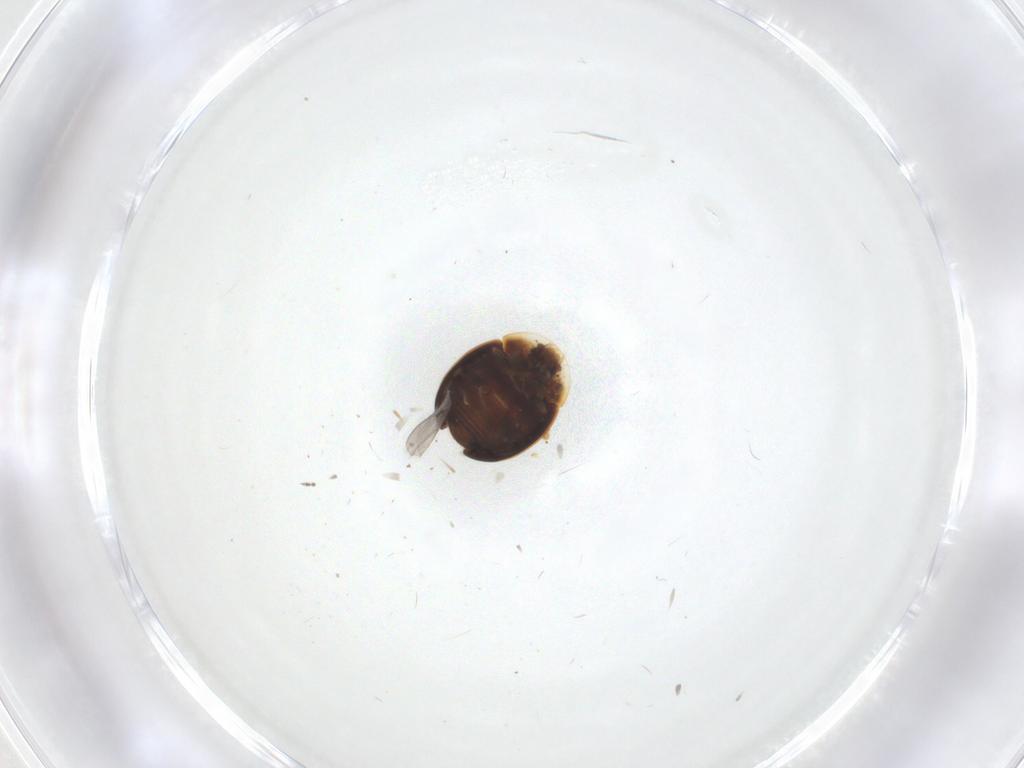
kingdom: Animalia
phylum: Arthropoda
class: Insecta
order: Coleoptera
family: Corylophidae
